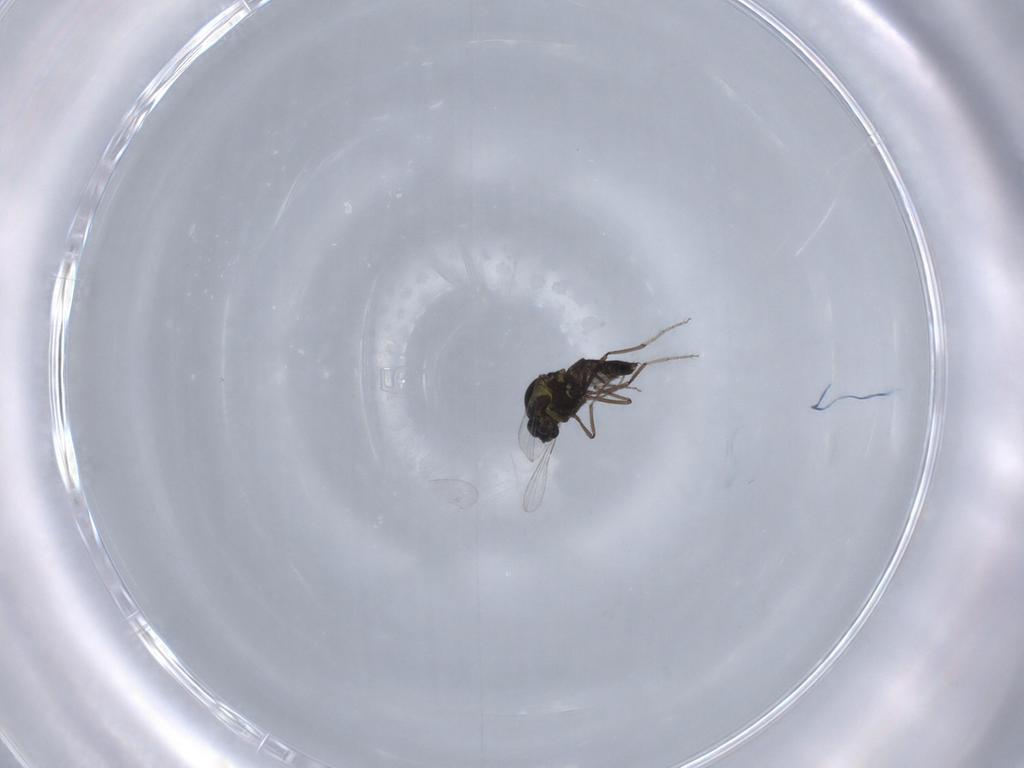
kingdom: Animalia
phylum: Arthropoda
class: Insecta
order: Diptera
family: Ceratopogonidae
